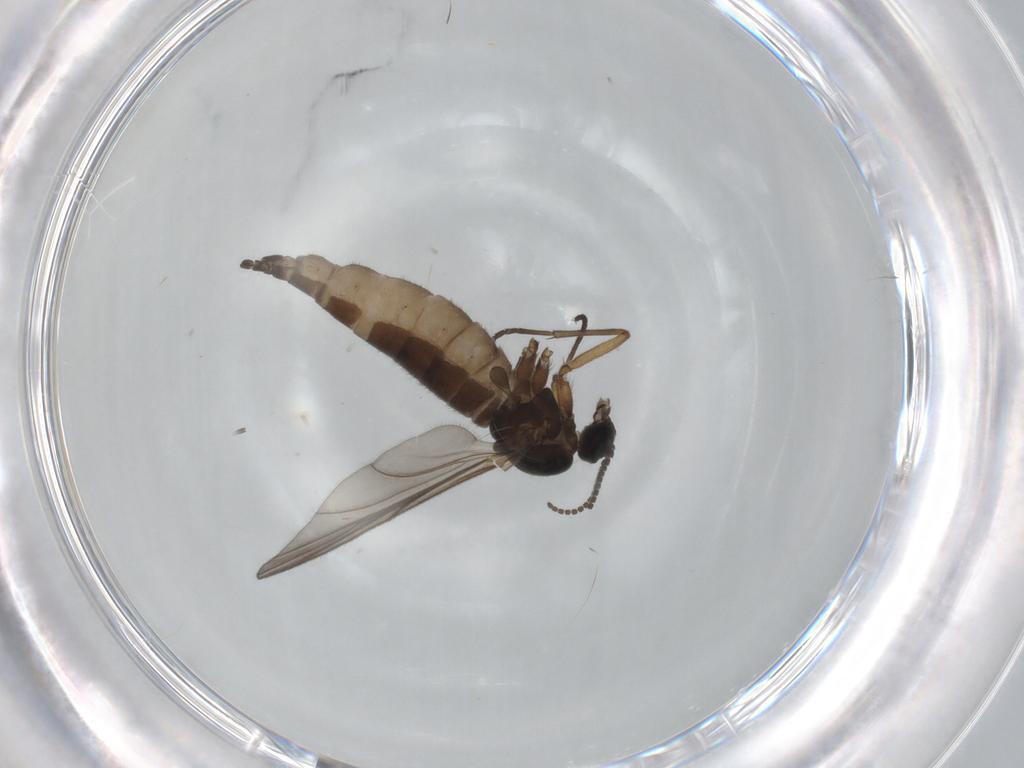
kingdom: Animalia
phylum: Arthropoda
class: Insecta
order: Diptera
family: Sciaridae
